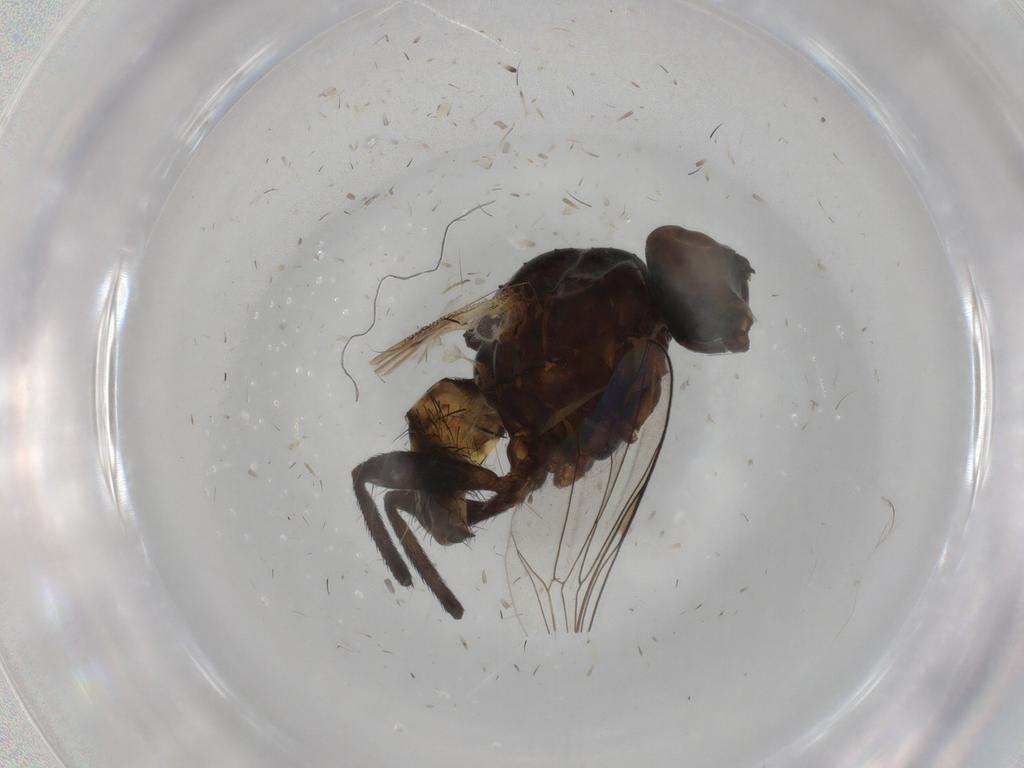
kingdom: Animalia
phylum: Arthropoda
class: Insecta
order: Diptera
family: Anthomyiidae
